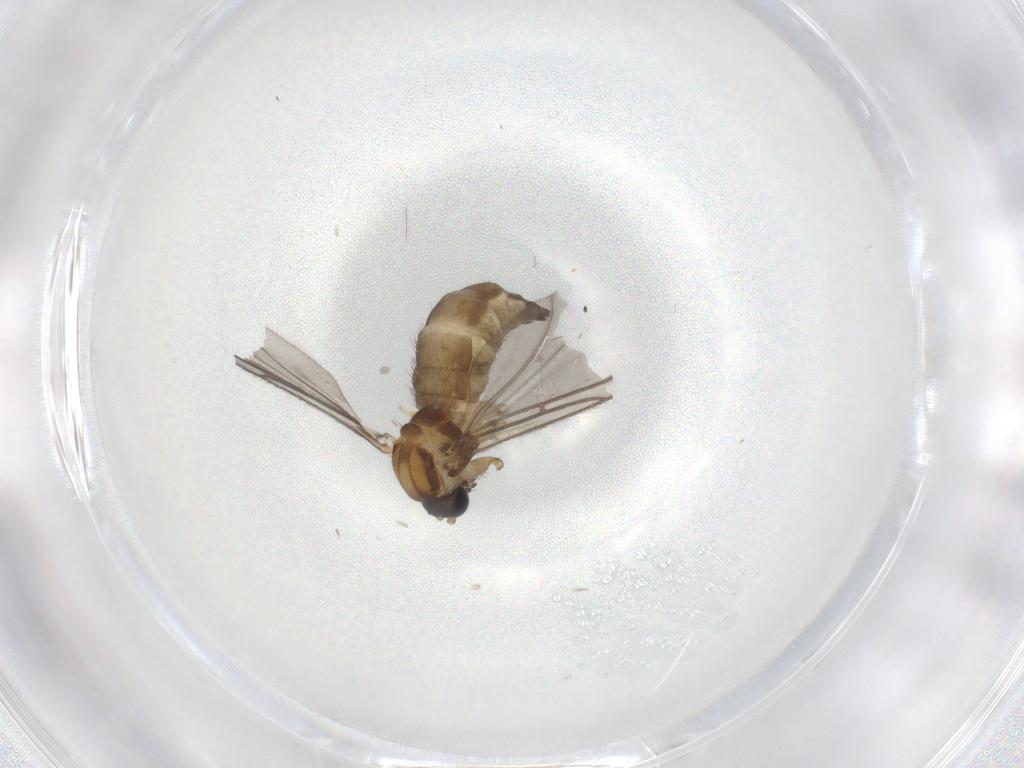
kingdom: Animalia
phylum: Arthropoda
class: Insecta
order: Diptera
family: Sciaridae
